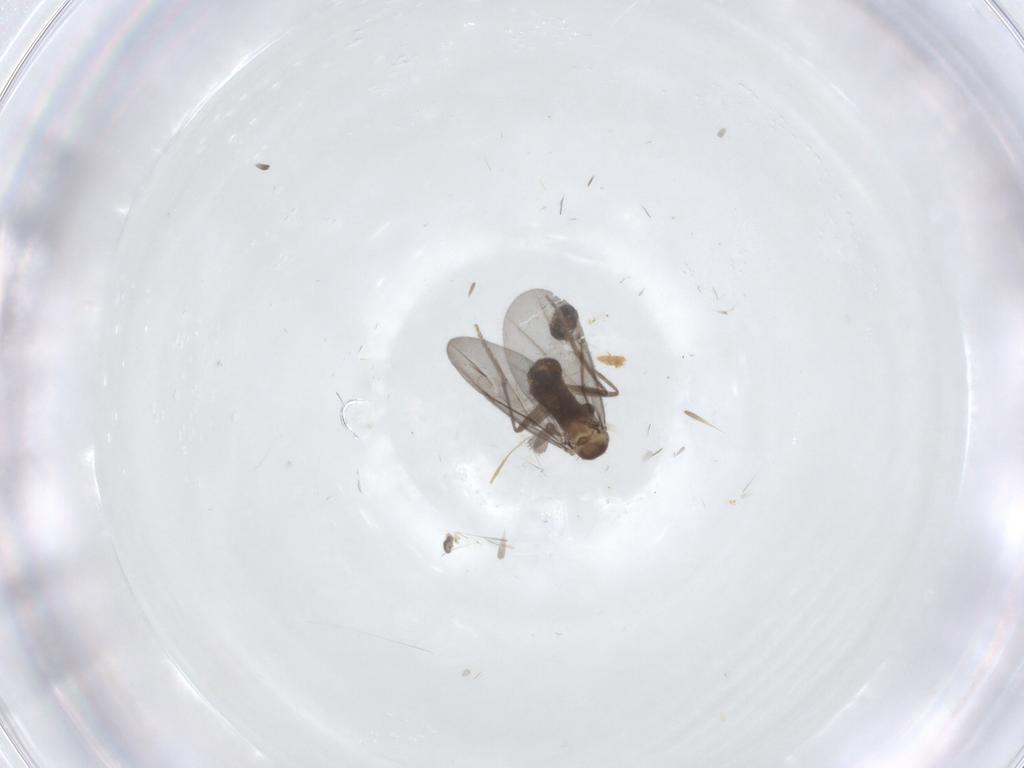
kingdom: Animalia
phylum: Arthropoda
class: Insecta
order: Diptera
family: Phoridae
